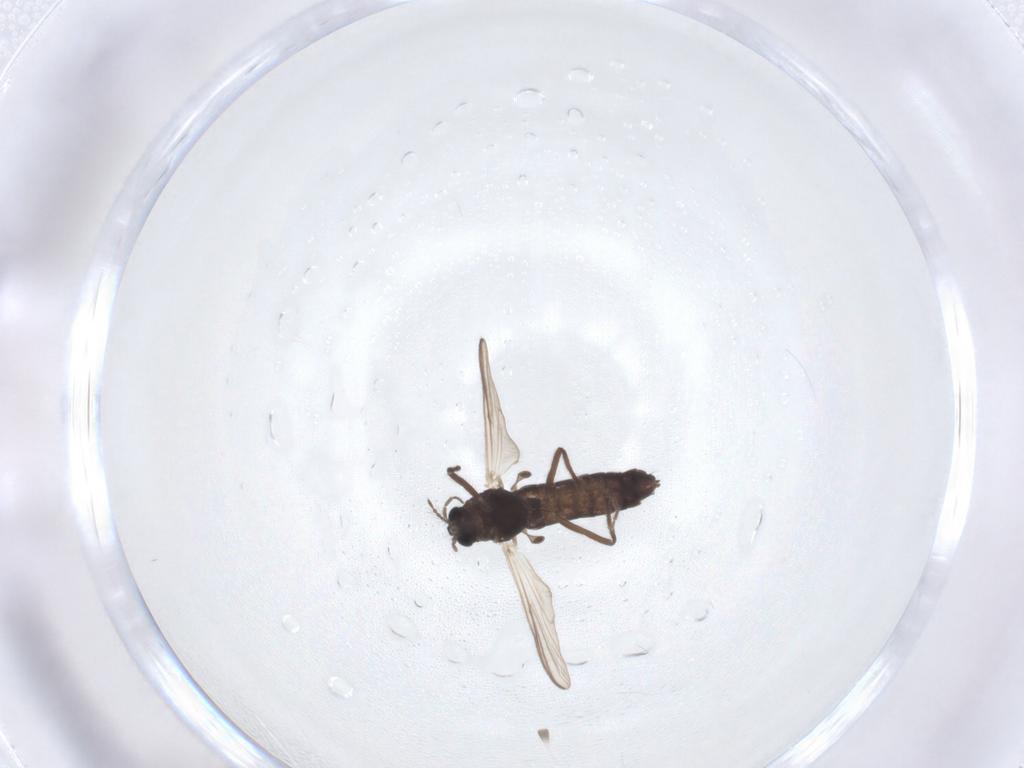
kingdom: Animalia
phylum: Arthropoda
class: Insecta
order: Diptera
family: Chironomidae
